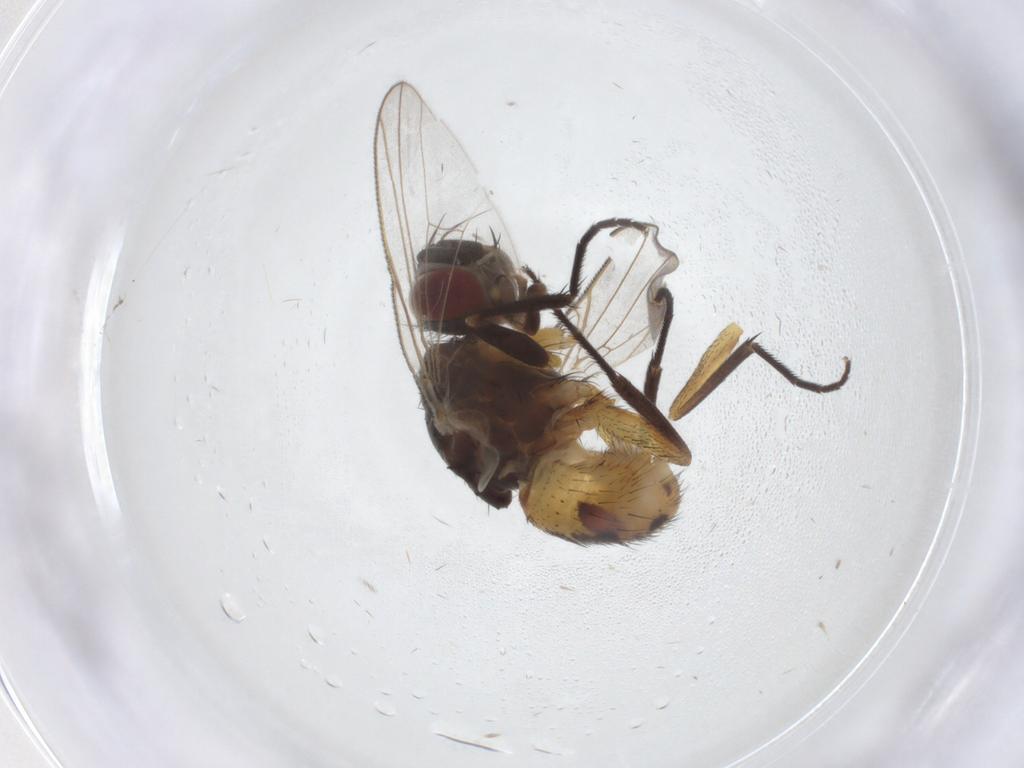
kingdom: Animalia
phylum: Arthropoda
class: Insecta
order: Diptera
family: Muscidae
